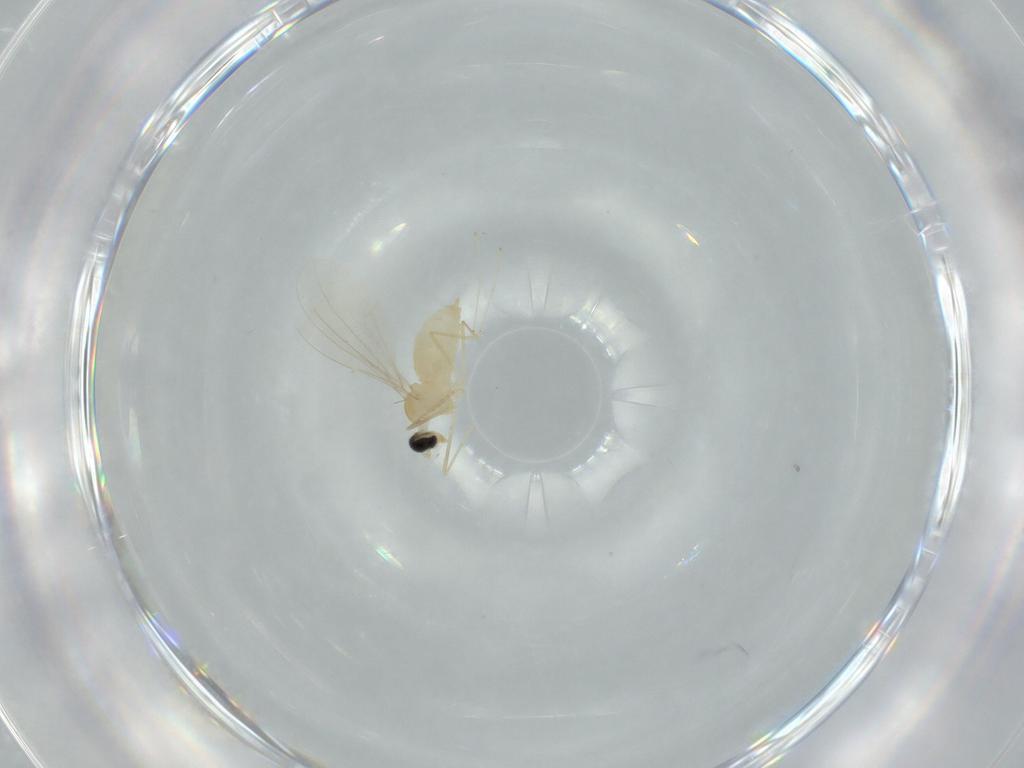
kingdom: Animalia
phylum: Arthropoda
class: Insecta
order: Diptera
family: Cecidomyiidae
